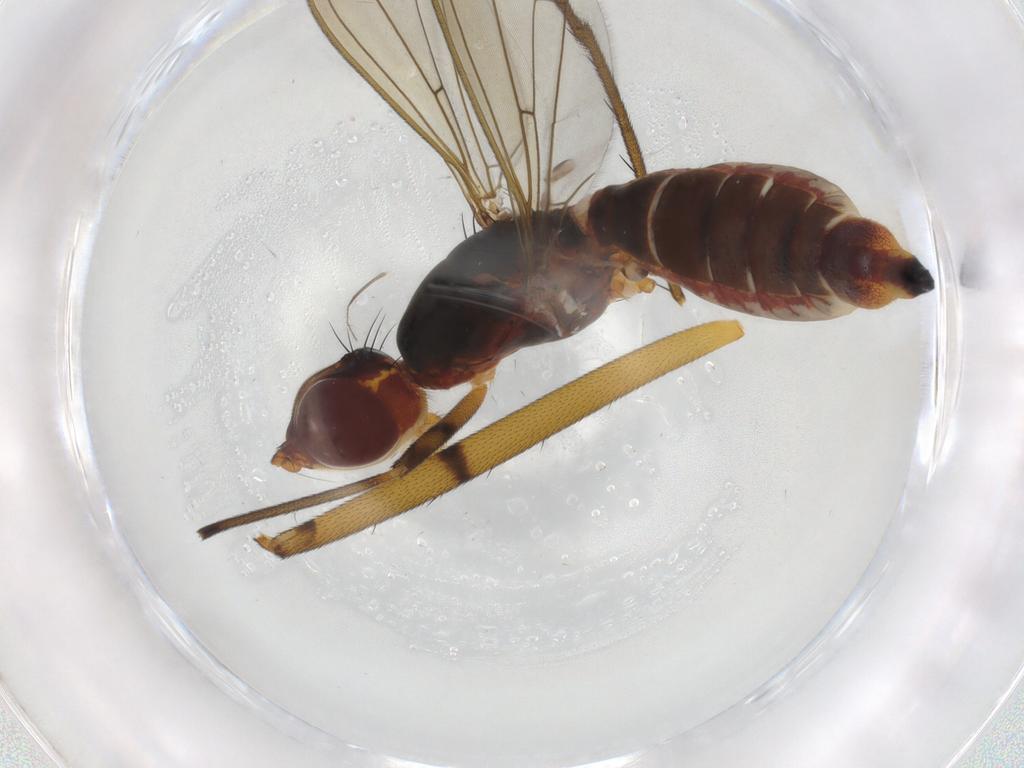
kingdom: Animalia
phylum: Arthropoda
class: Insecta
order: Diptera
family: Micropezidae
